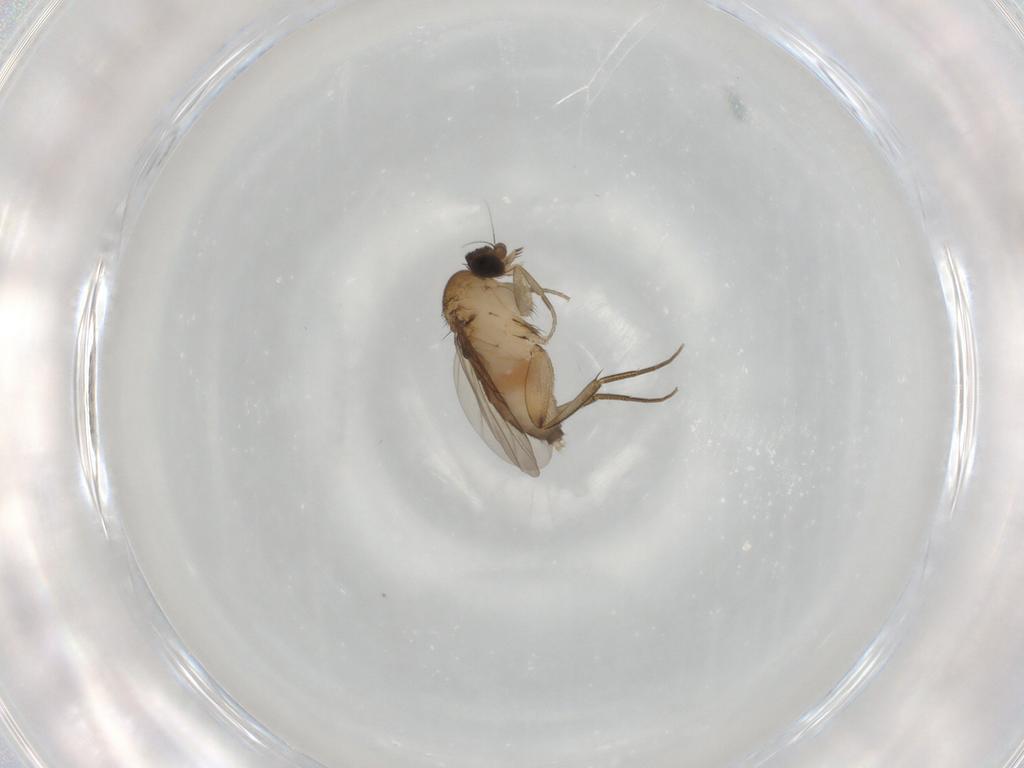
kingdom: Animalia
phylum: Arthropoda
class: Insecta
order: Diptera
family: Phoridae
